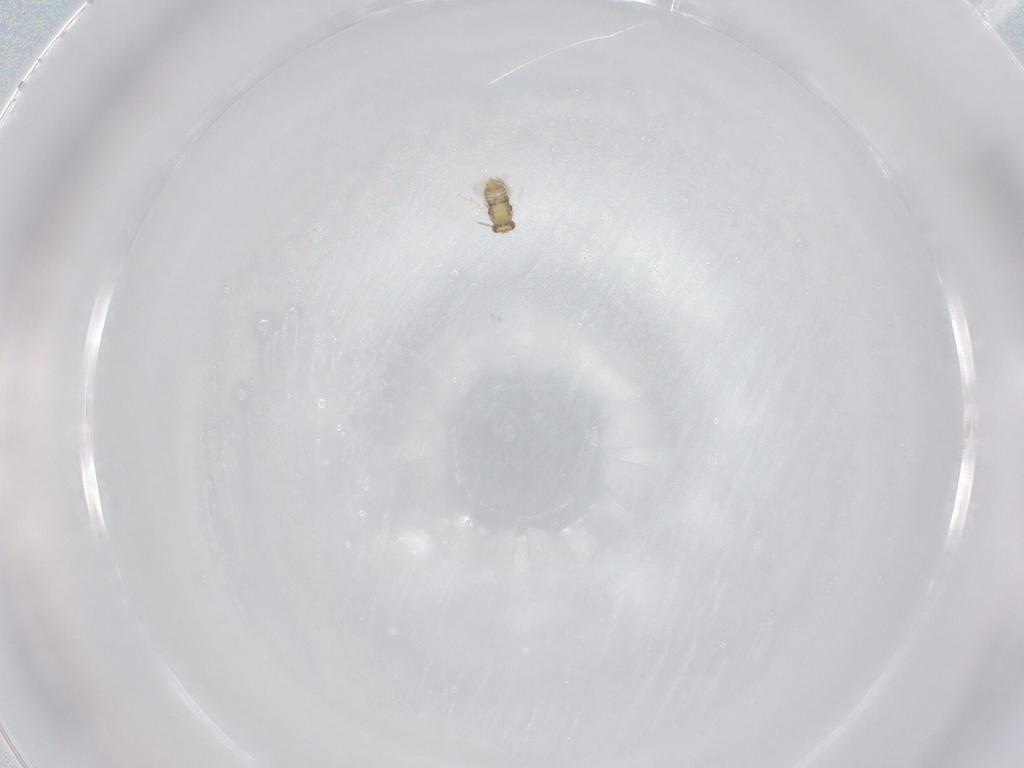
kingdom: Animalia
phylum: Arthropoda
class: Insecta
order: Hymenoptera
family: Aphelinidae
